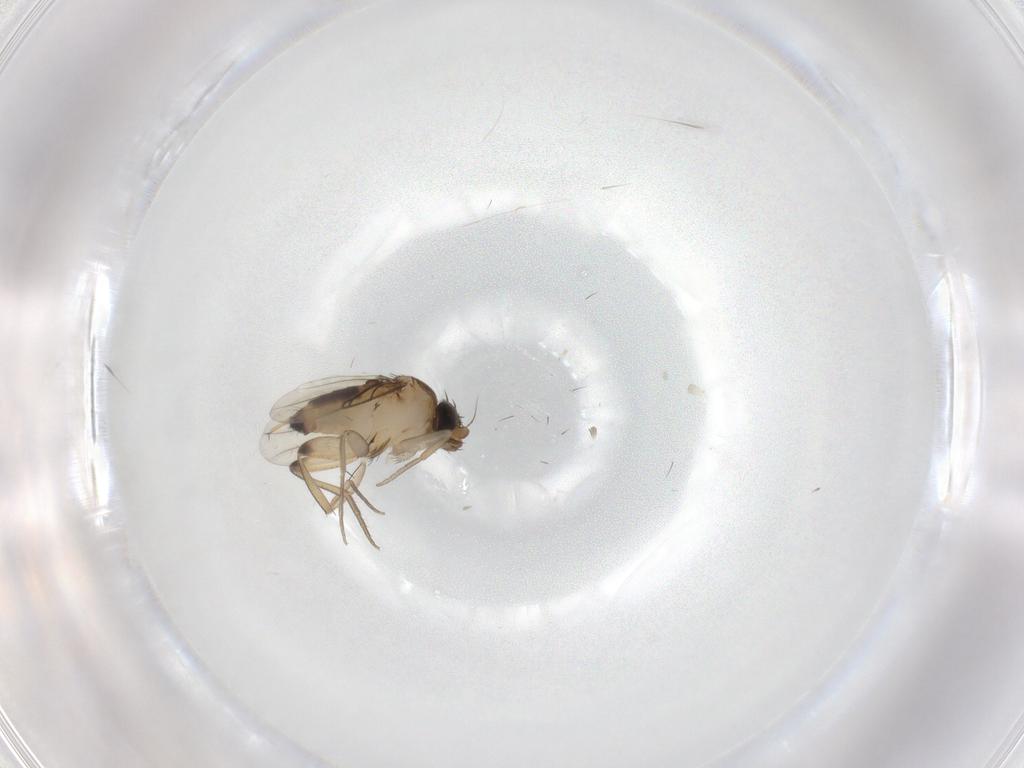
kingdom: Animalia
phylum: Arthropoda
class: Insecta
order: Diptera
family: Phoridae
